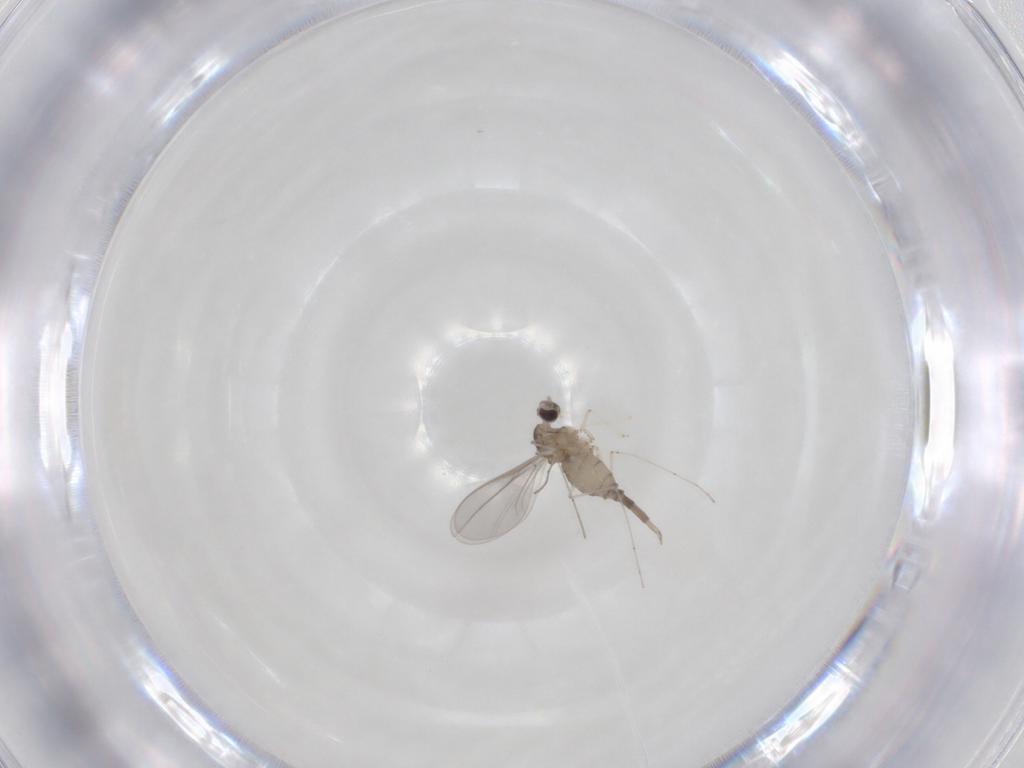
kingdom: Animalia
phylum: Arthropoda
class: Insecta
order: Diptera
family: Cecidomyiidae
